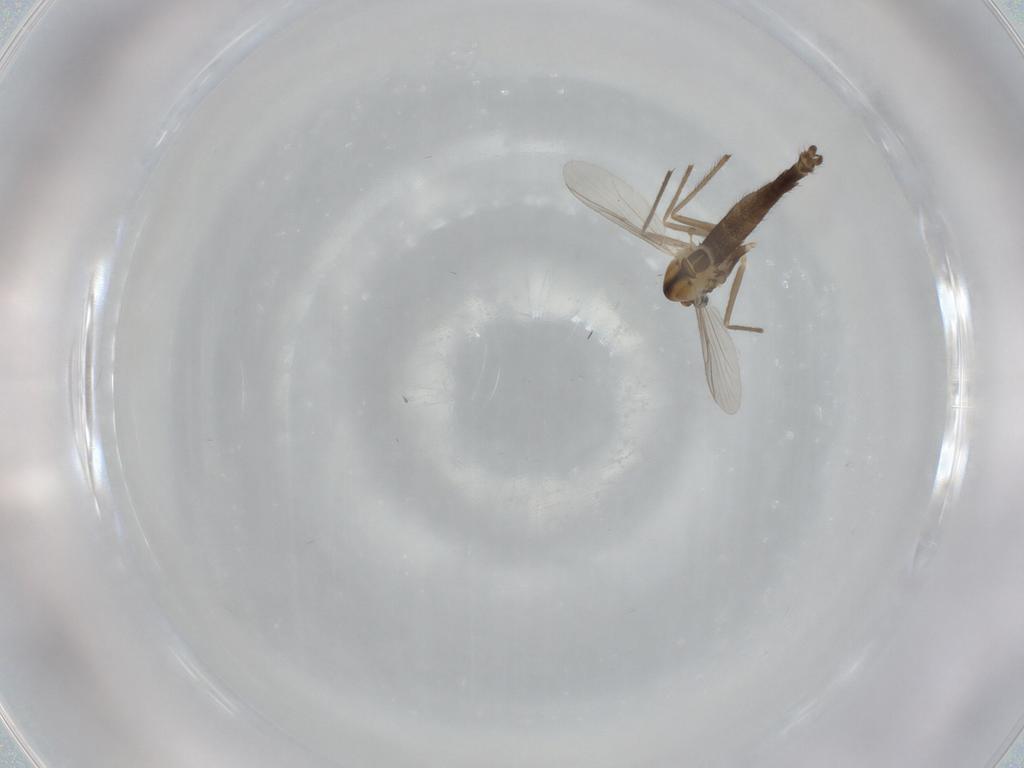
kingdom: Animalia
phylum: Arthropoda
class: Insecta
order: Diptera
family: Chironomidae
